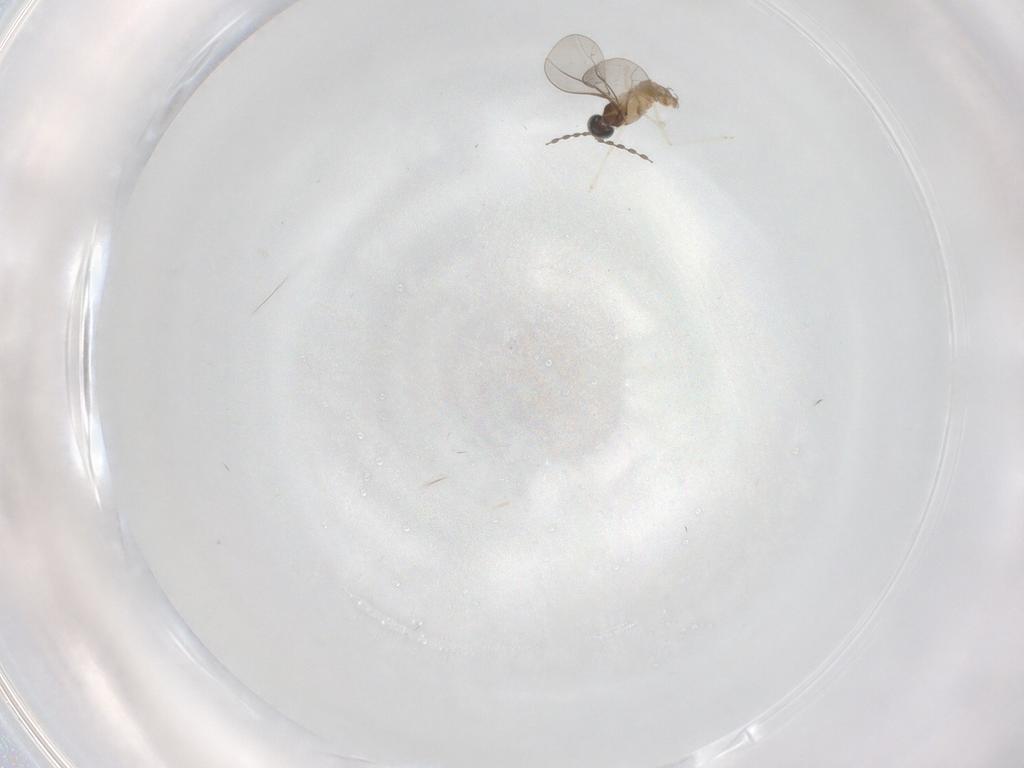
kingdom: Animalia
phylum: Arthropoda
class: Insecta
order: Diptera
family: Cecidomyiidae
